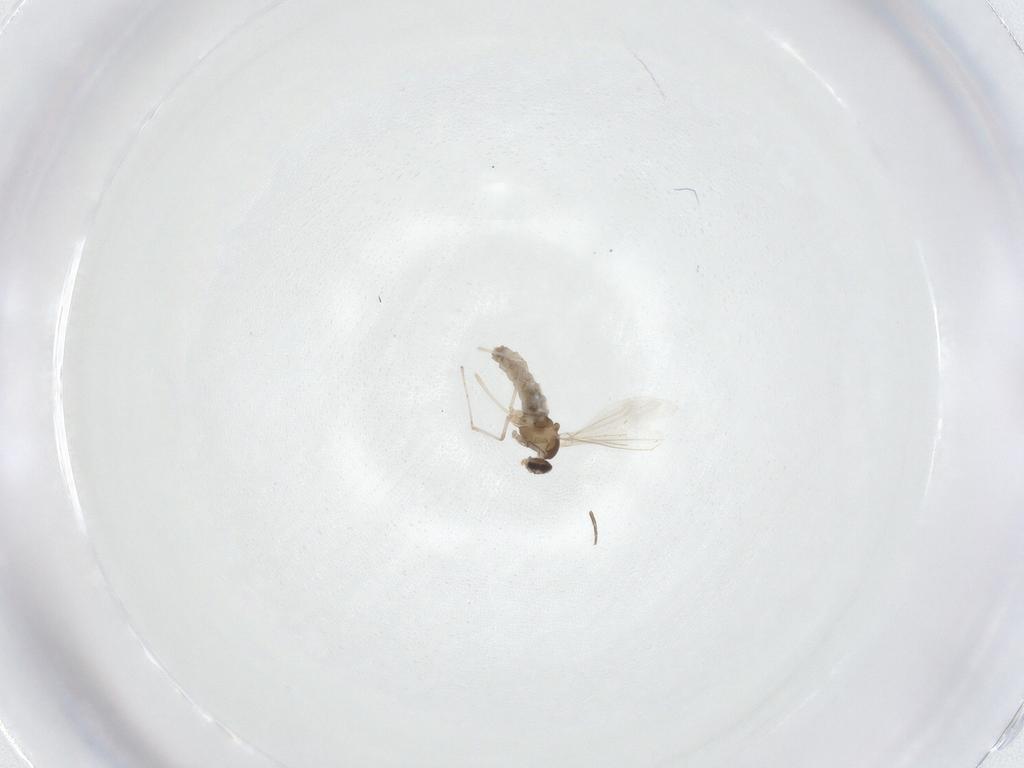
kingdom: Animalia
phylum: Arthropoda
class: Insecta
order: Diptera
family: Cecidomyiidae
